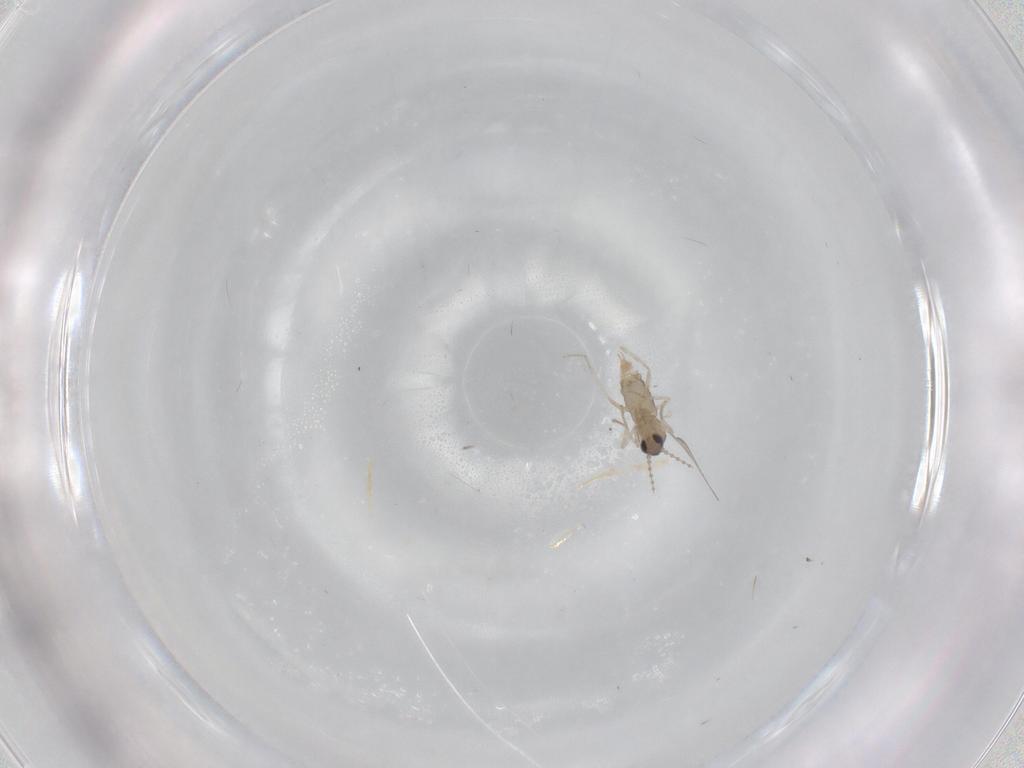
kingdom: Animalia
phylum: Arthropoda
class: Insecta
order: Diptera
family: Cecidomyiidae
